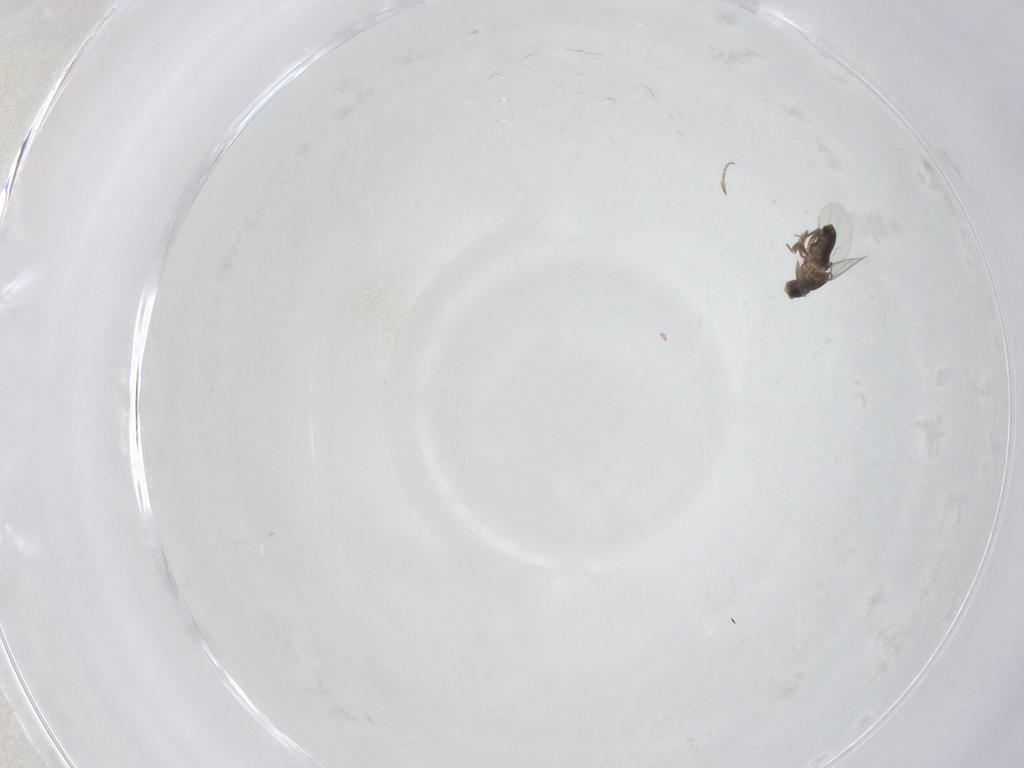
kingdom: Animalia
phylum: Arthropoda
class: Insecta
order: Diptera
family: Phoridae
